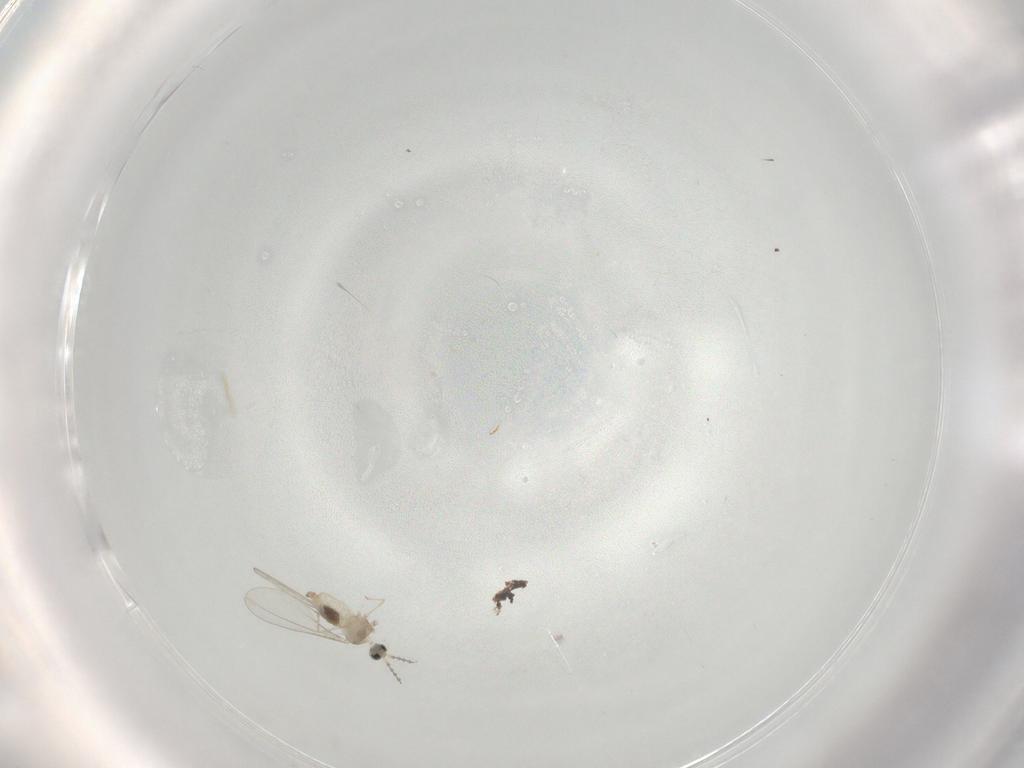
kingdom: Animalia
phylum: Arthropoda
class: Insecta
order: Diptera
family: Cecidomyiidae
